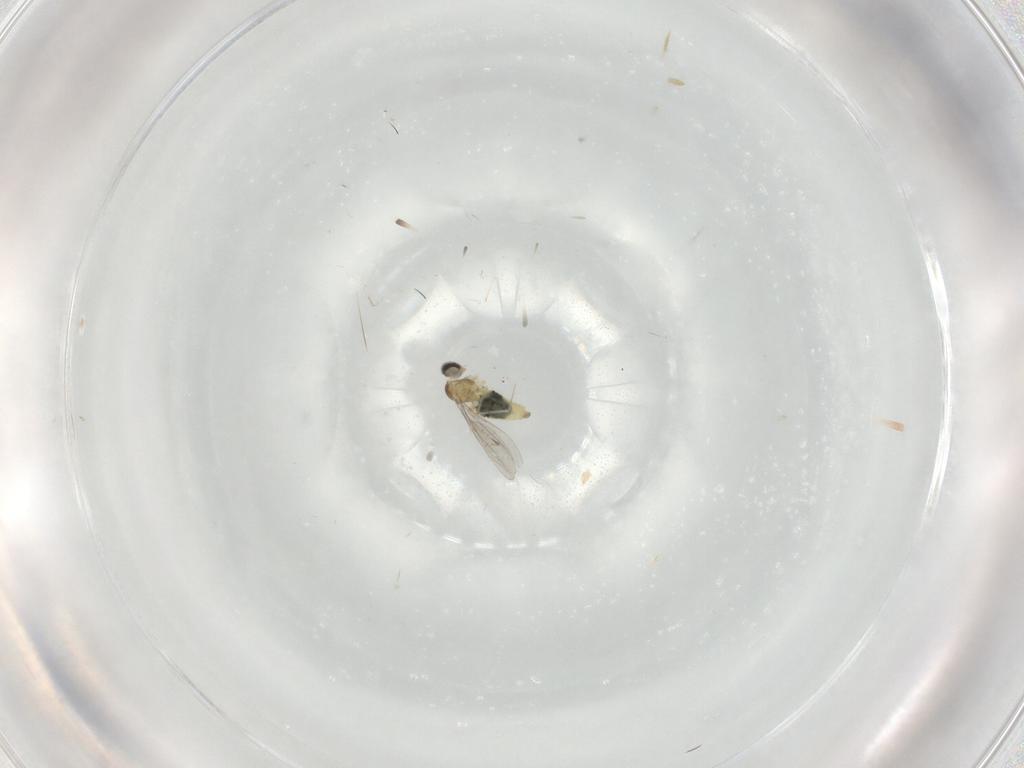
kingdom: Animalia
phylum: Arthropoda
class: Insecta
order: Diptera
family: Cecidomyiidae
